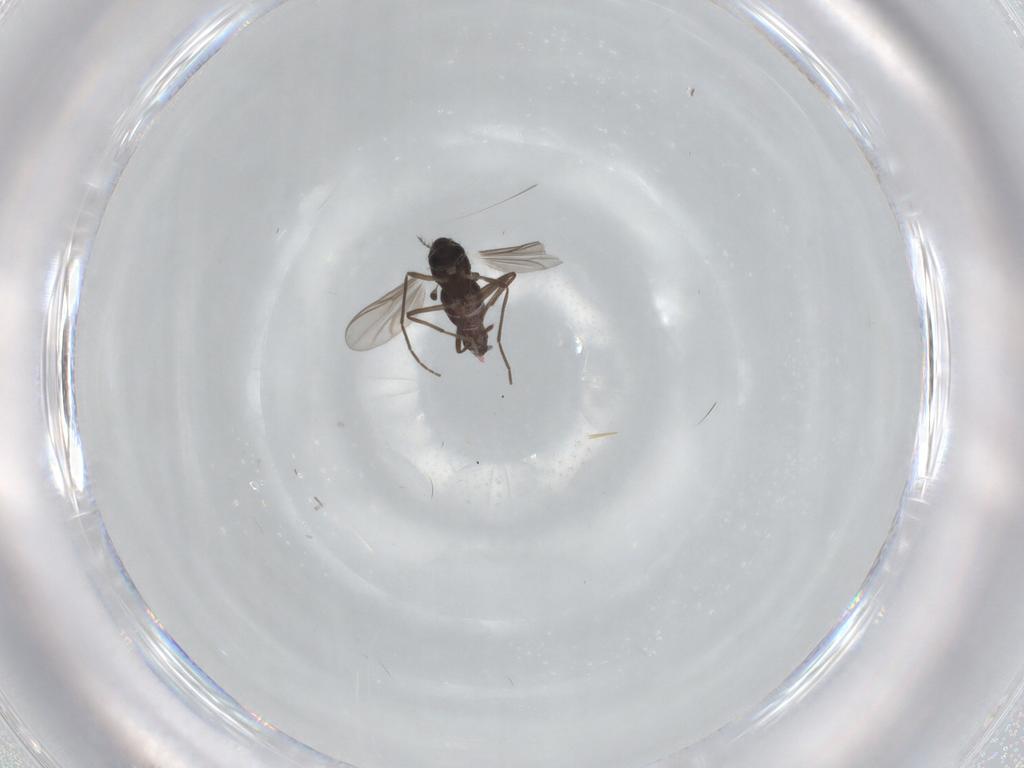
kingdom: Animalia
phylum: Arthropoda
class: Insecta
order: Diptera
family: Chironomidae
